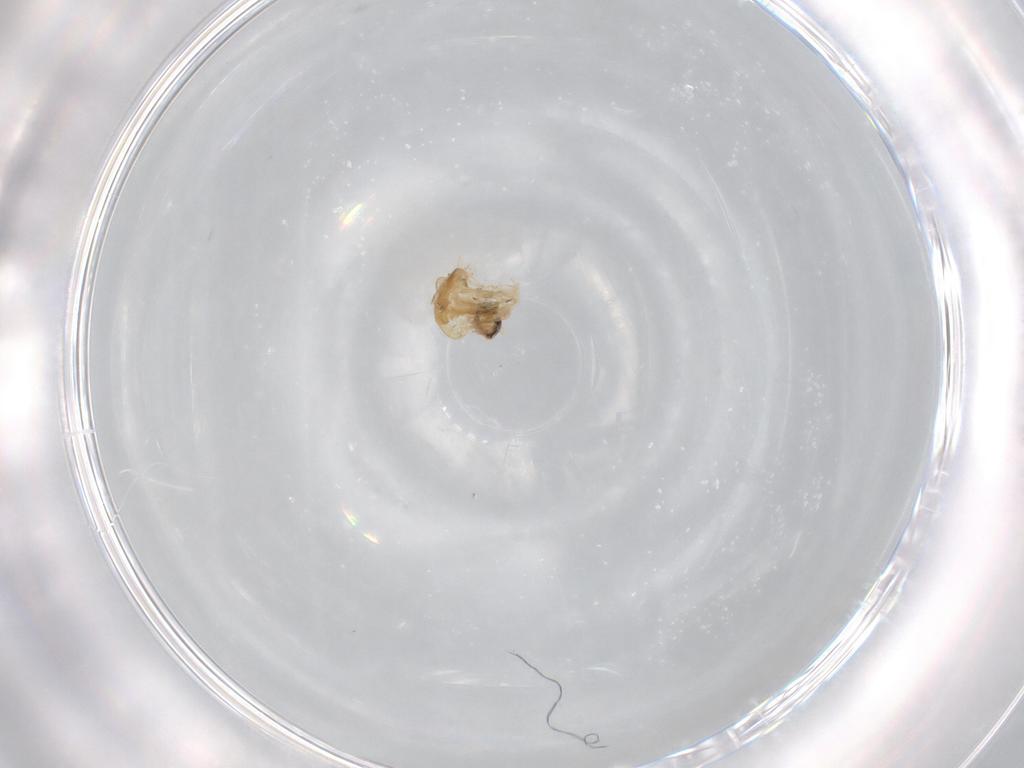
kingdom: Animalia
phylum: Arthropoda
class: Insecta
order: Diptera
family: Cecidomyiidae
